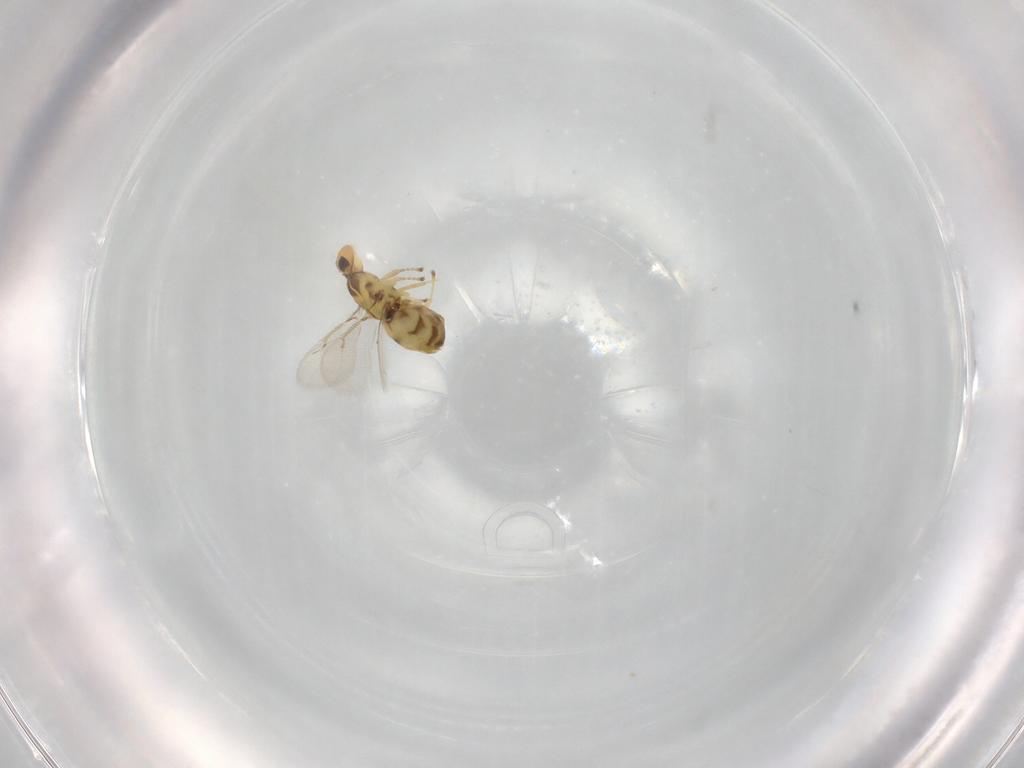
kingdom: Animalia
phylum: Arthropoda
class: Insecta
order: Hymenoptera
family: Eulophidae
